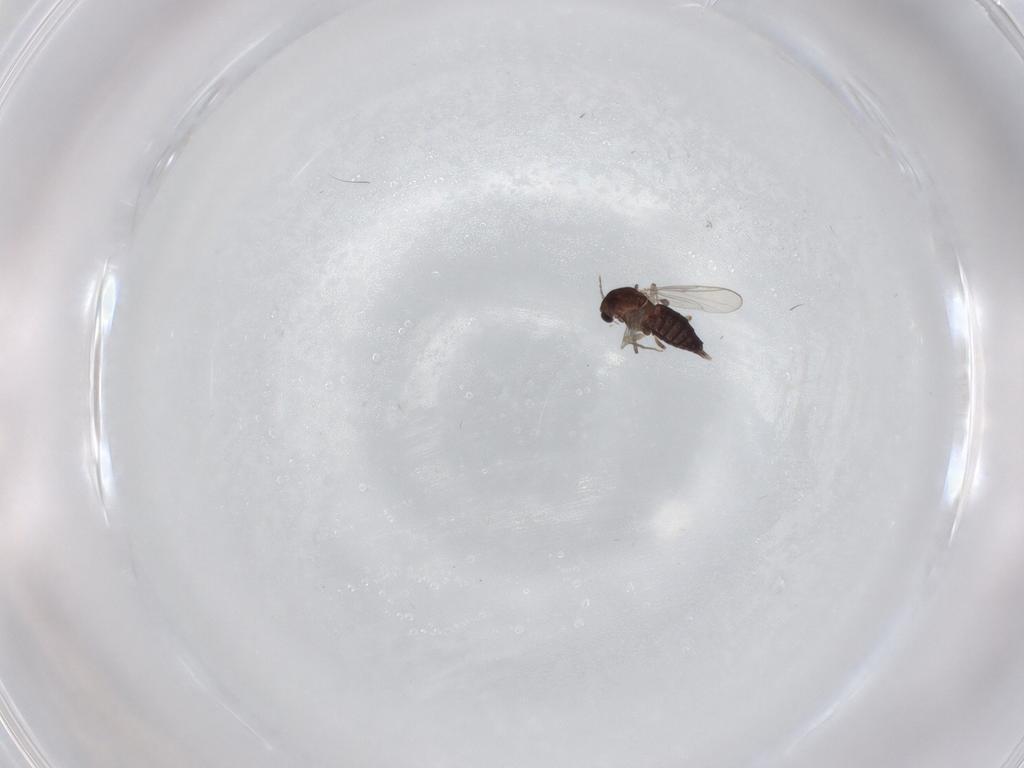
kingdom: Animalia
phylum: Arthropoda
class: Insecta
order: Diptera
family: Chironomidae
